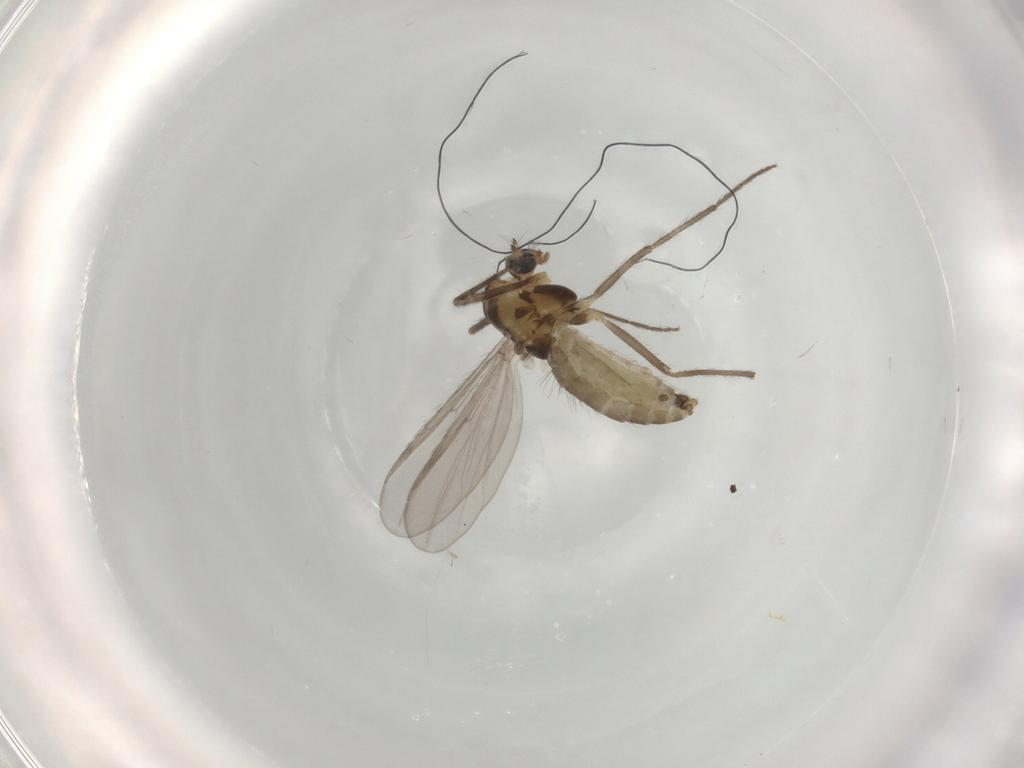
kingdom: Animalia
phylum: Arthropoda
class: Insecta
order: Diptera
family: Chironomidae
